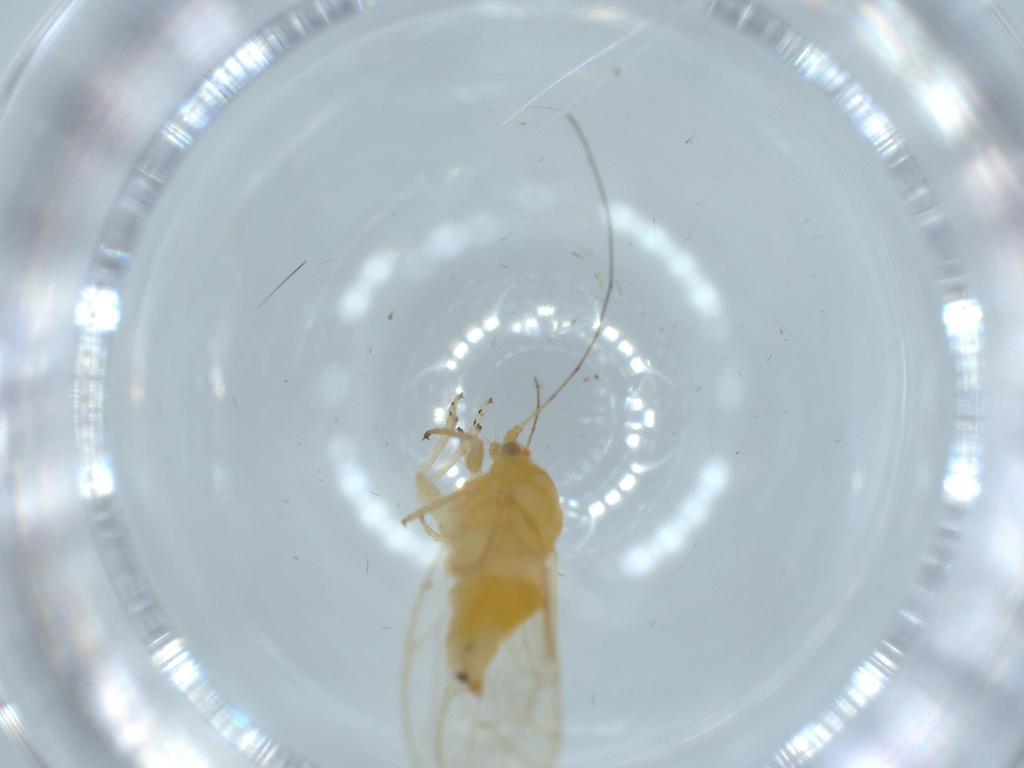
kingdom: Animalia
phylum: Arthropoda
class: Insecta
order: Hemiptera
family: Psyllidae
